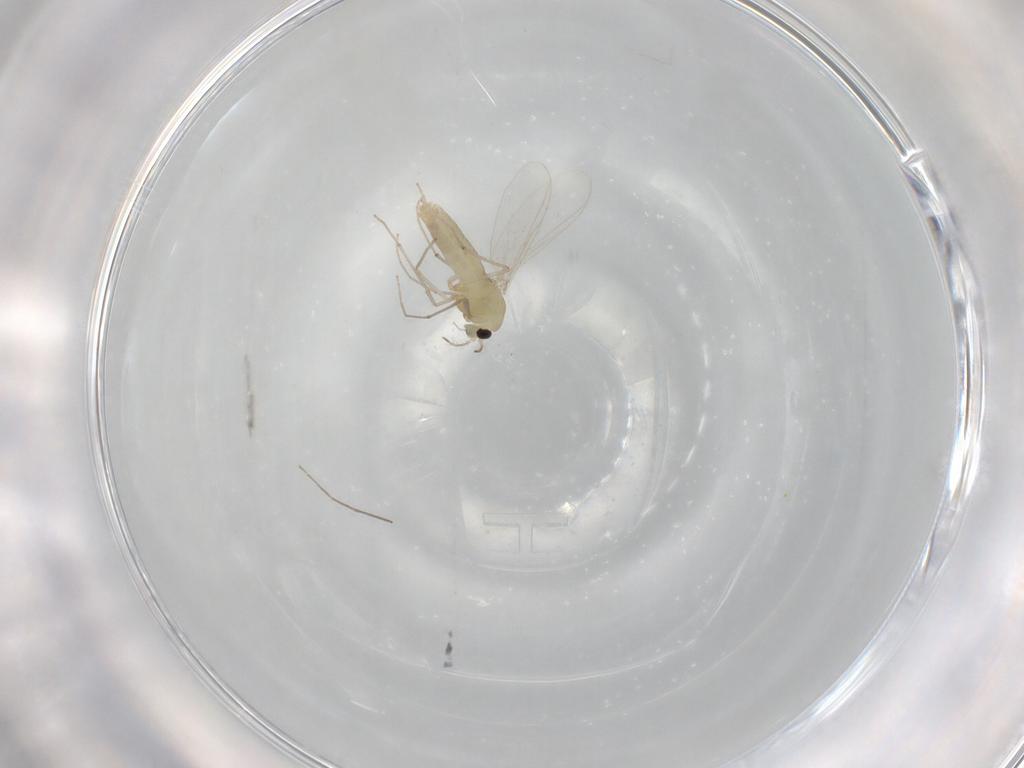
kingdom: Animalia
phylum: Arthropoda
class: Insecta
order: Diptera
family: Chironomidae
